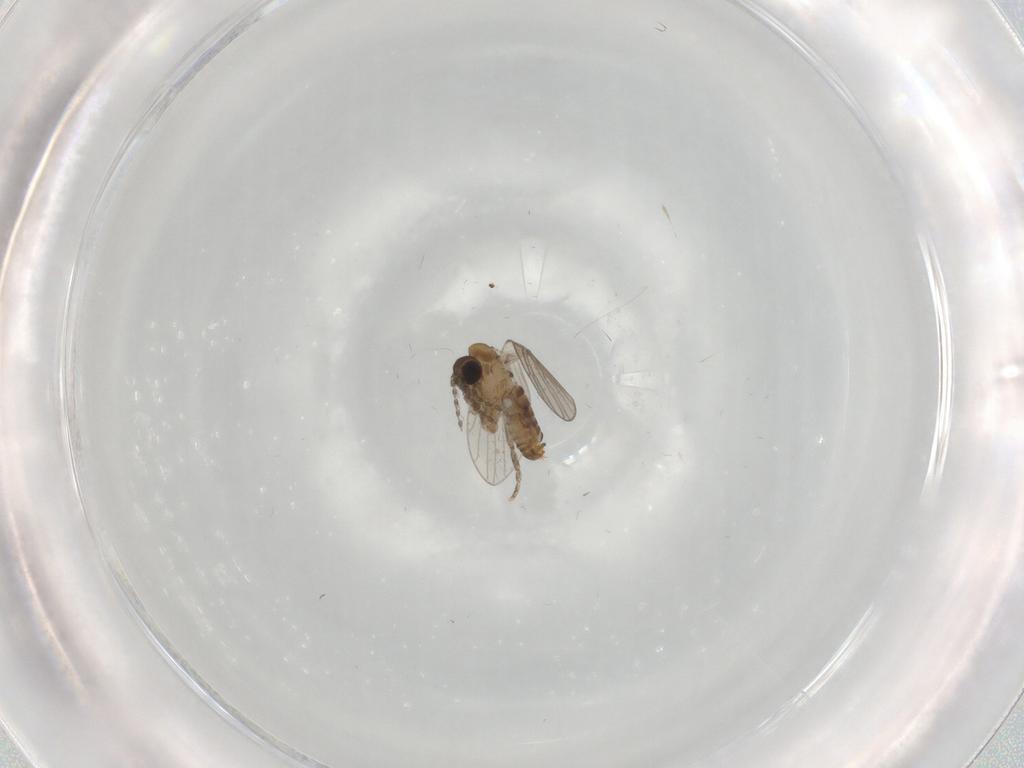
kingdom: Animalia
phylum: Arthropoda
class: Insecta
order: Diptera
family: Psychodidae
